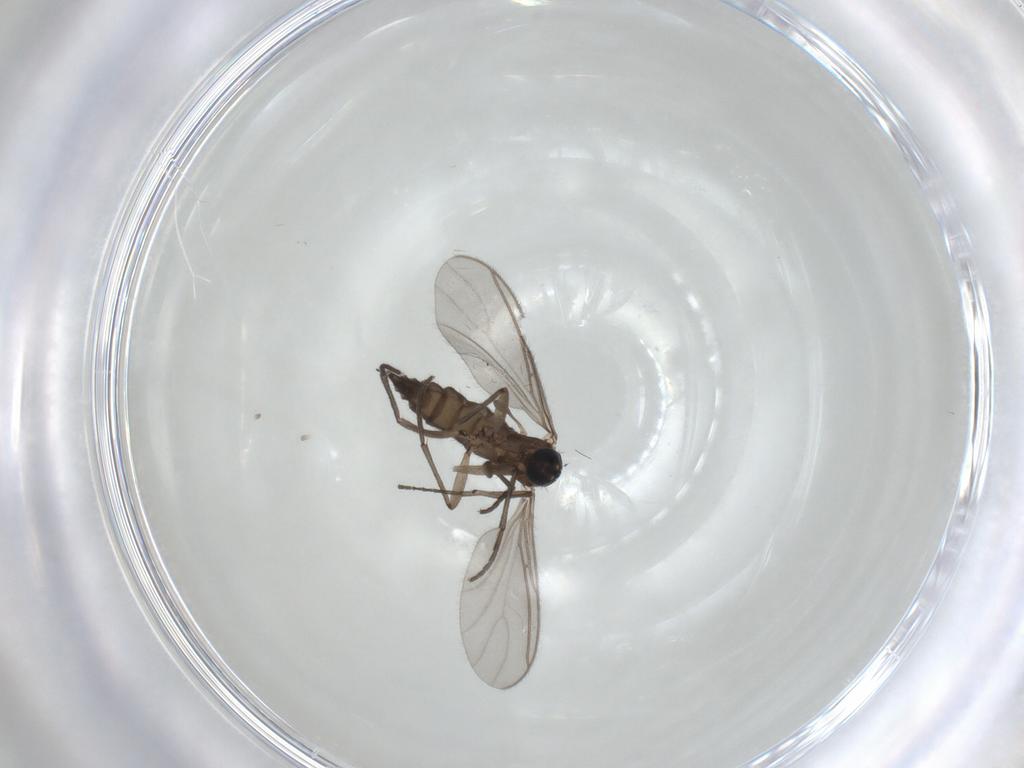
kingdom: Animalia
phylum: Arthropoda
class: Insecta
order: Diptera
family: Sciaridae
